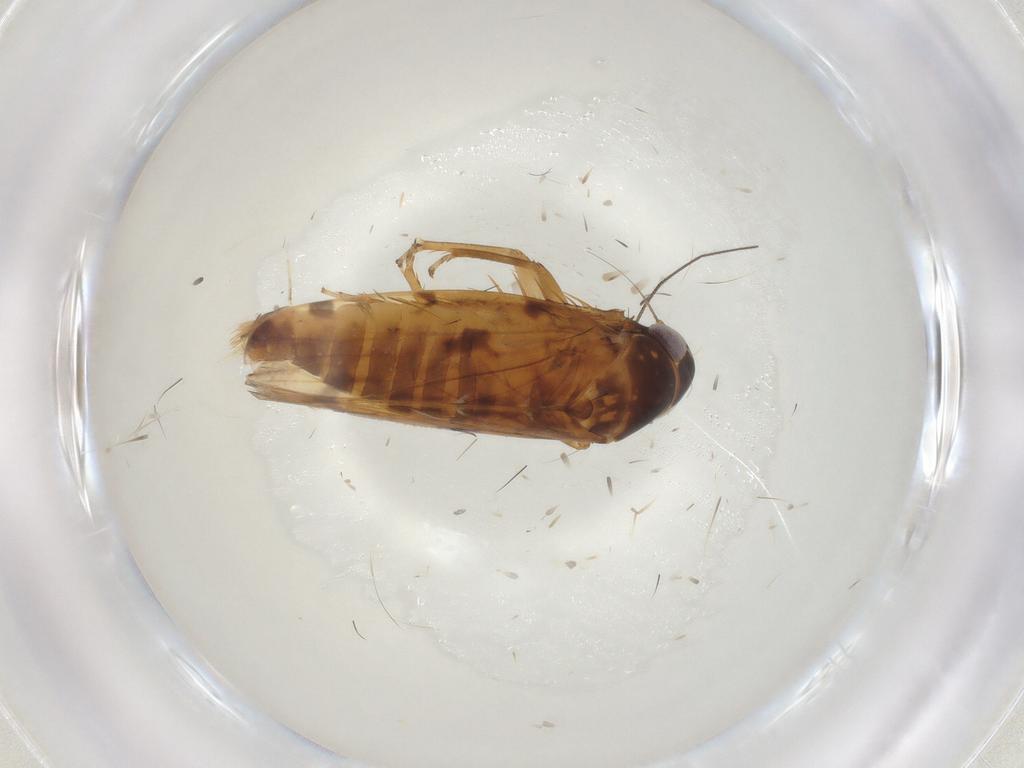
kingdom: Animalia
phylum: Arthropoda
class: Insecta
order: Hemiptera
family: Cicadellidae
